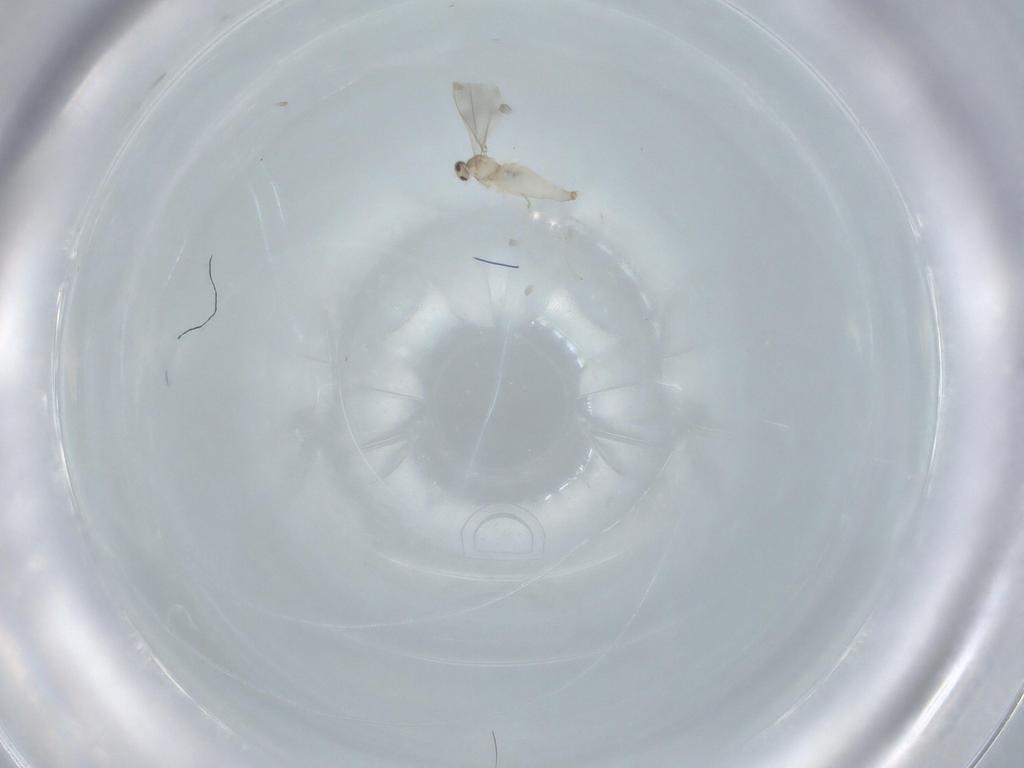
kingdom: Animalia
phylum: Arthropoda
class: Insecta
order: Diptera
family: Cecidomyiidae
